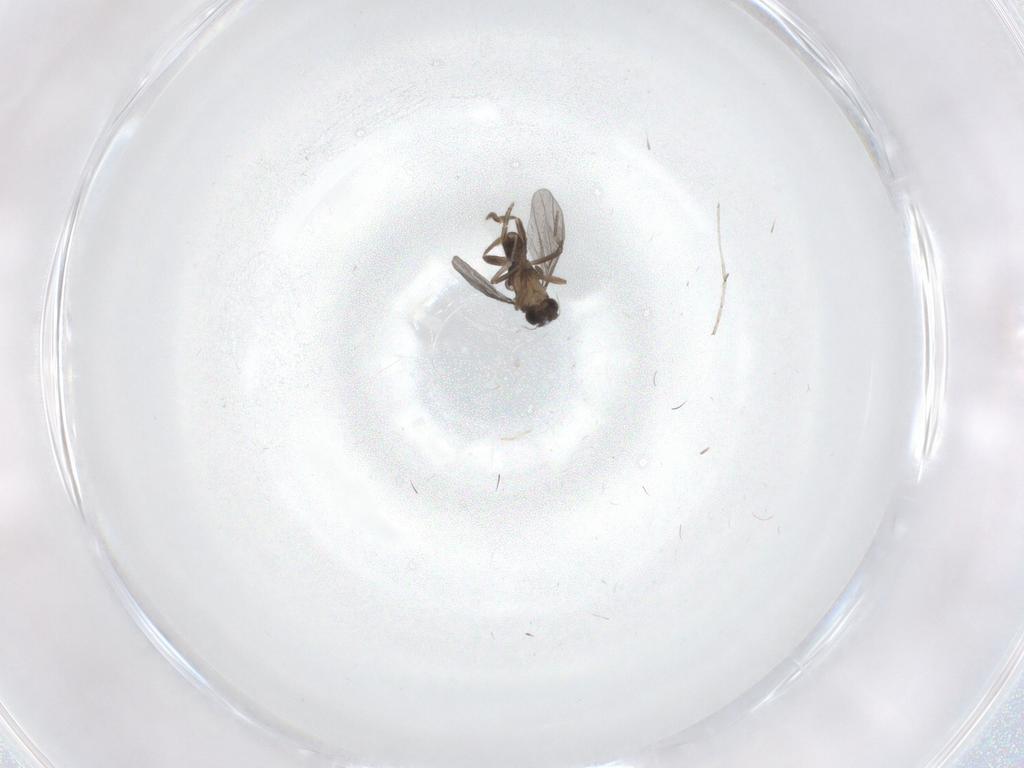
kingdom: Animalia
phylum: Arthropoda
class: Insecta
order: Diptera
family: Cecidomyiidae
